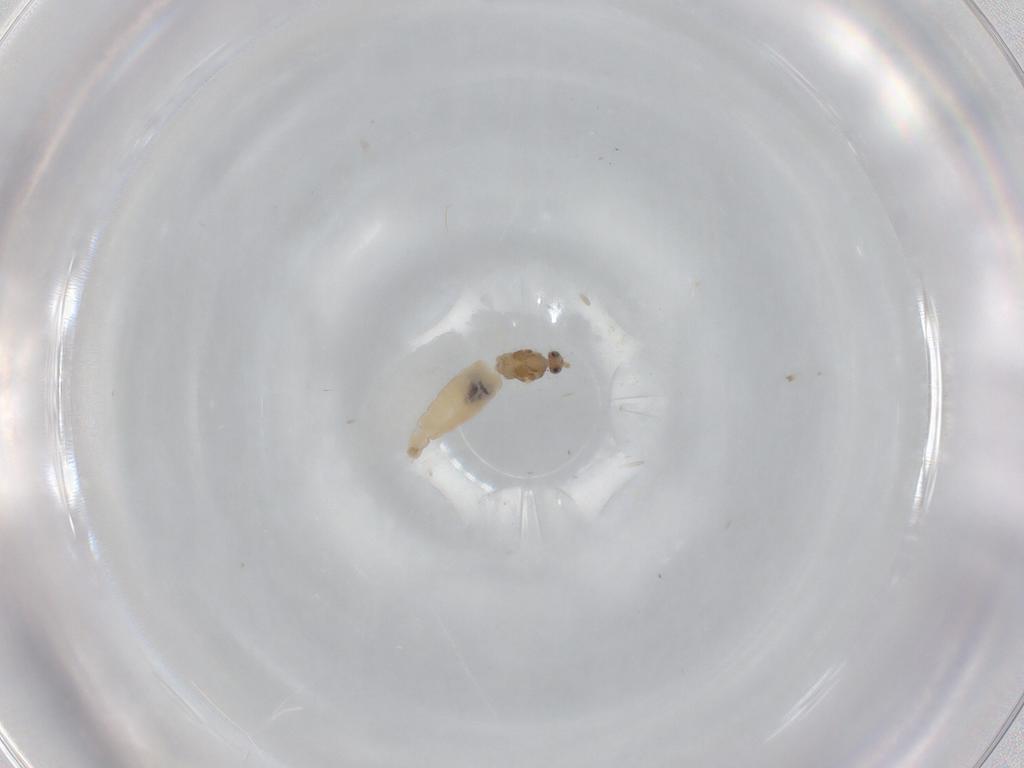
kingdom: Animalia
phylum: Arthropoda
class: Insecta
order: Diptera
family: Cecidomyiidae
